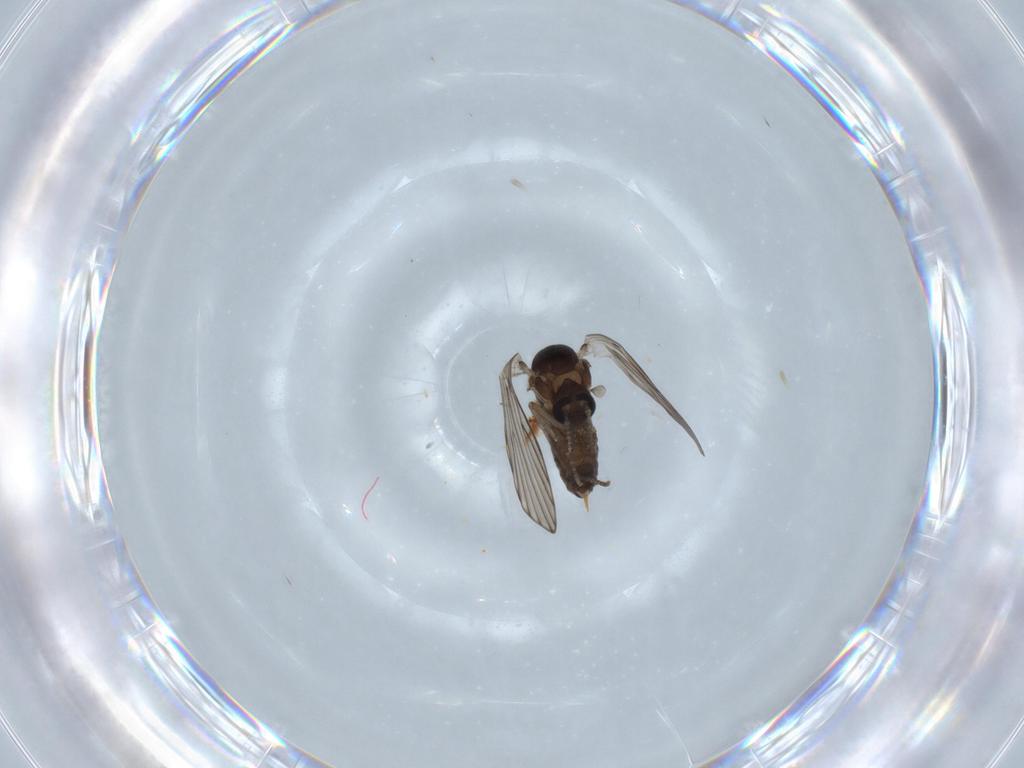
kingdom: Animalia
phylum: Arthropoda
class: Insecta
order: Diptera
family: Psychodidae
